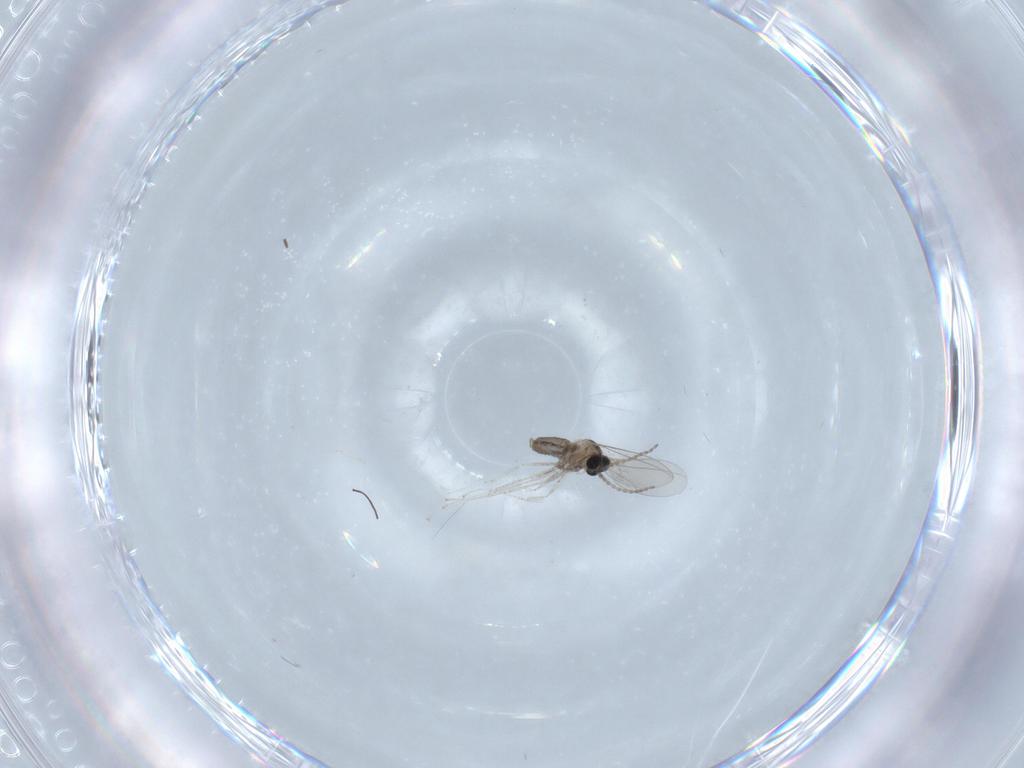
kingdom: Animalia
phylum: Arthropoda
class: Insecta
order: Diptera
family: Cecidomyiidae
